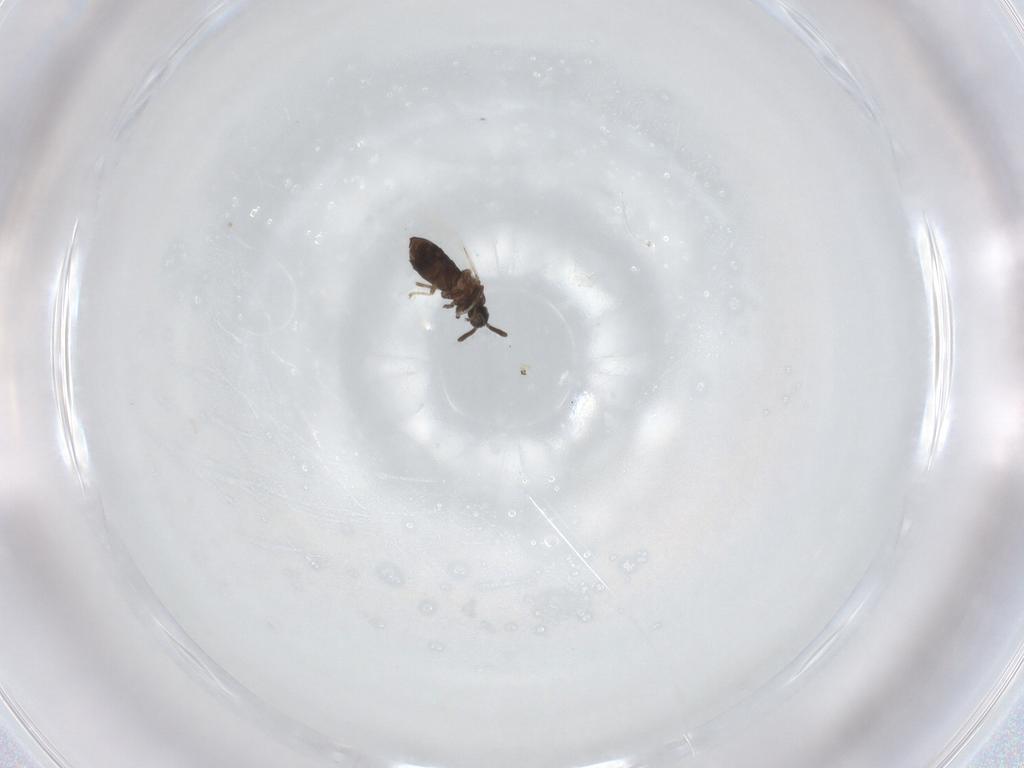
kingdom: Animalia
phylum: Arthropoda
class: Insecta
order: Diptera
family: Scatopsidae
